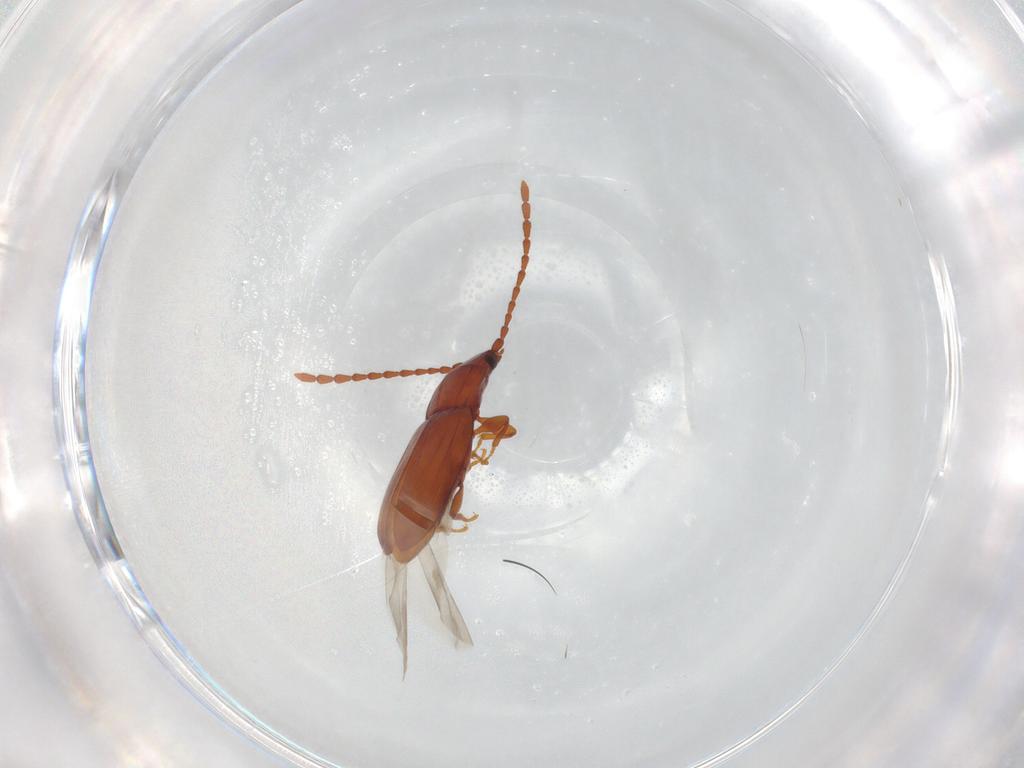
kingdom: Animalia
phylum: Arthropoda
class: Insecta
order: Coleoptera
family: Laemophloeidae
